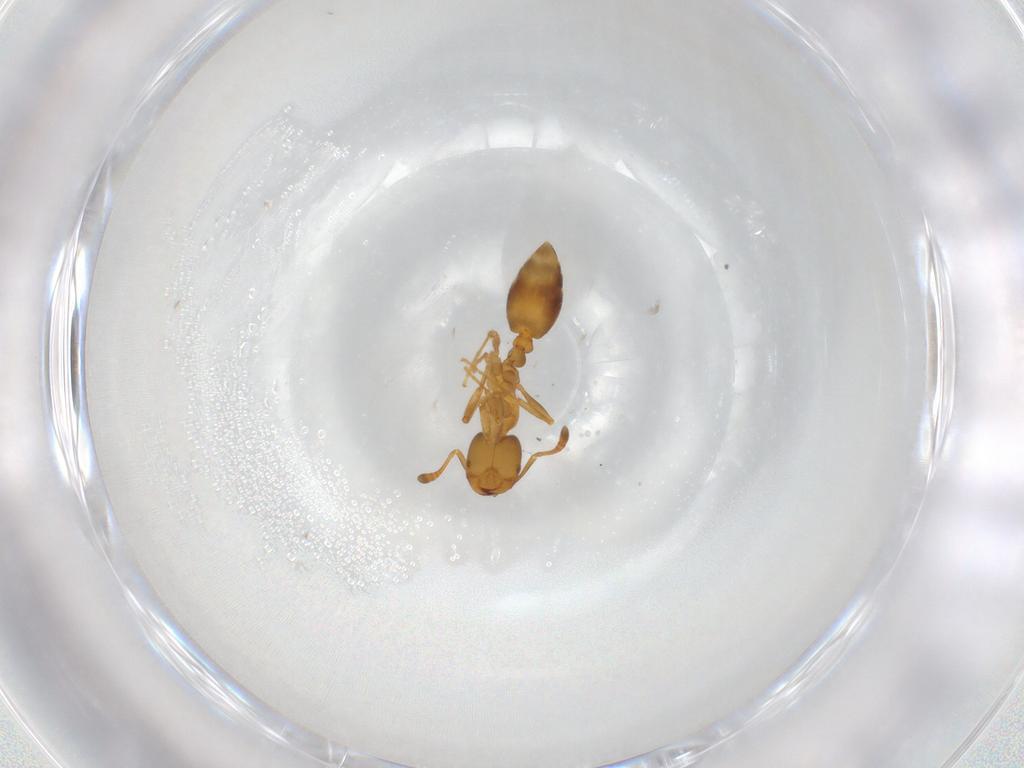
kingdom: Animalia
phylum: Arthropoda
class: Insecta
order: Hymenoptera
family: Formicidae
